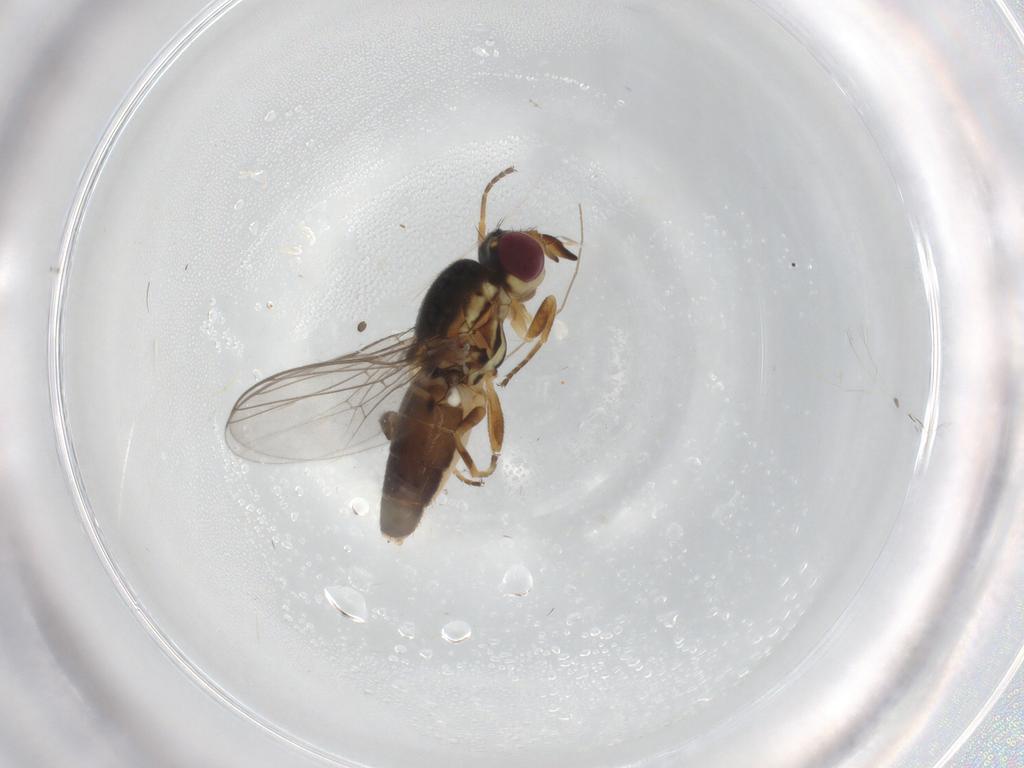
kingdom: Animalia
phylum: Arthropoda
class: Insecta
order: Diptera
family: Chloropidae
